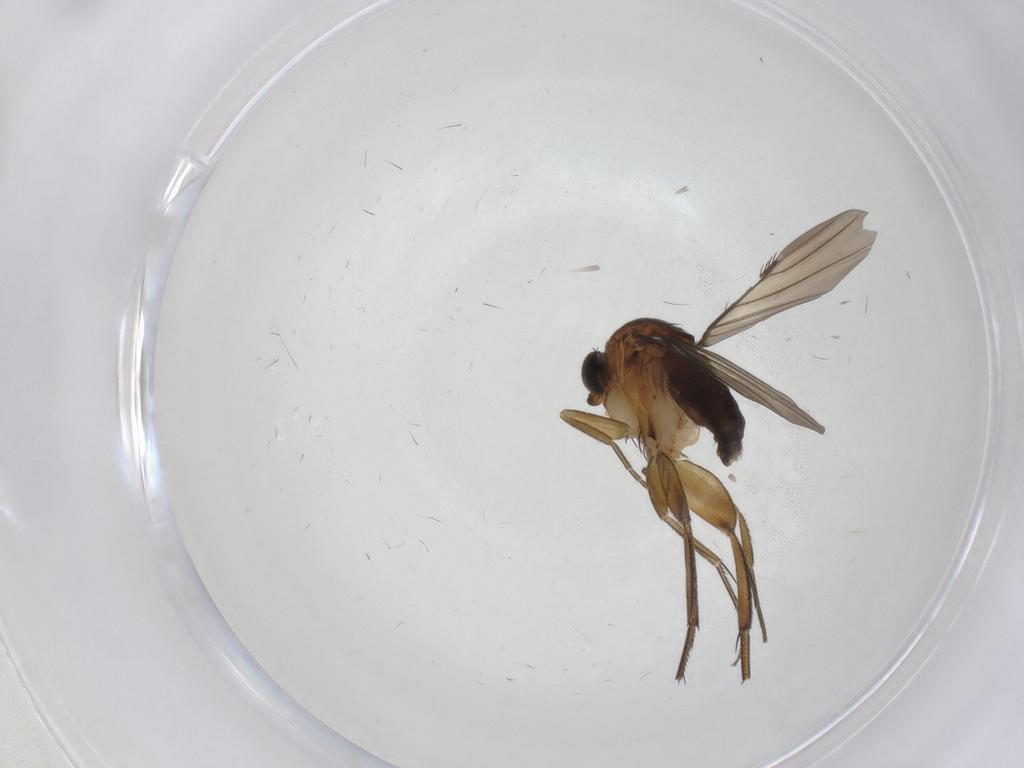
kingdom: Animalia
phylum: Arthropoda
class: Insecta
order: Diptera
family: Phoridae
